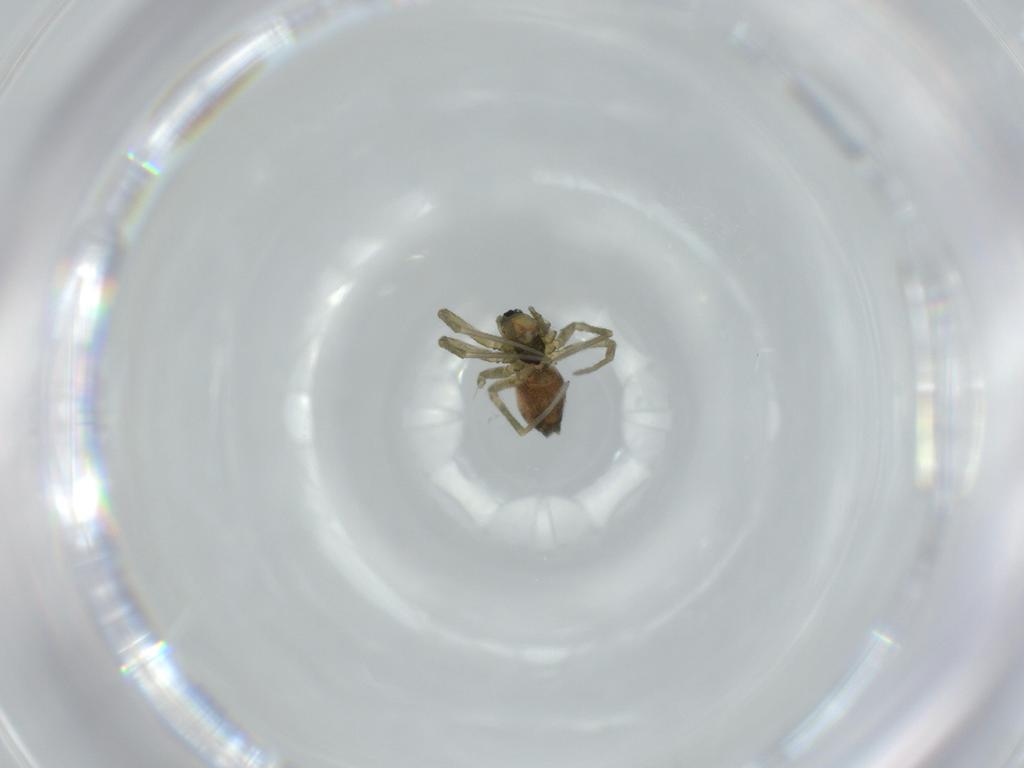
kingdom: Animalia
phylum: Arthropoda
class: Arachnida
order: Araneae
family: Linyphiidae
